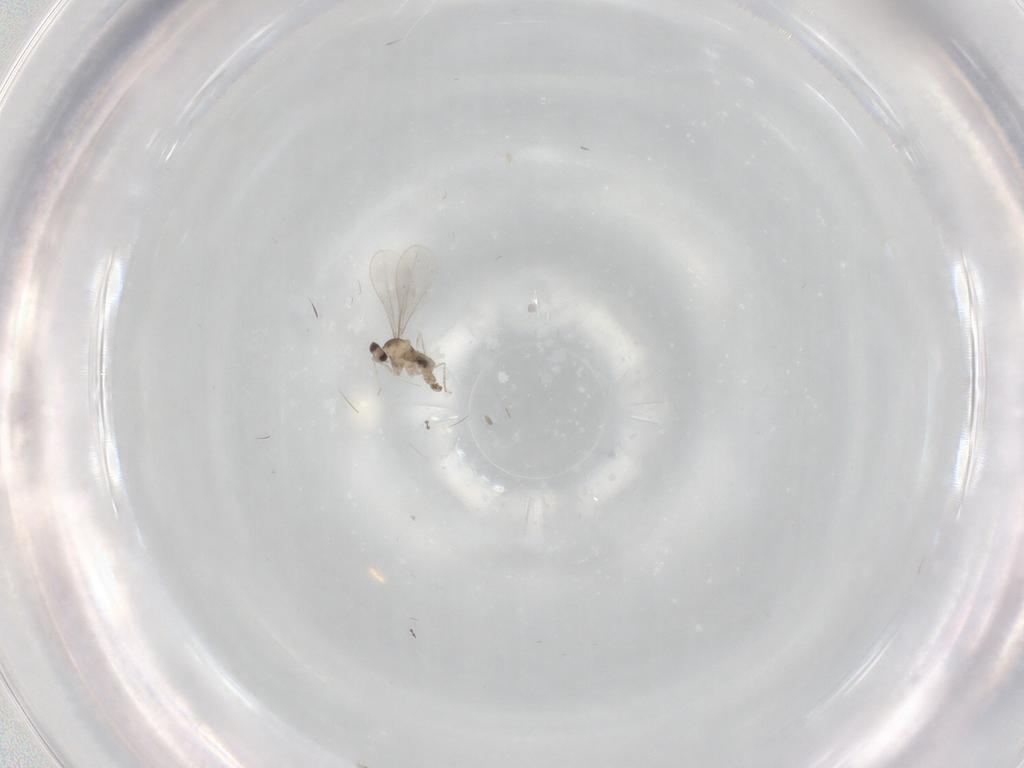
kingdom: Animalia
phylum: Arthropoda
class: Insecta
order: Diptera
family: Cecidomyiidae
